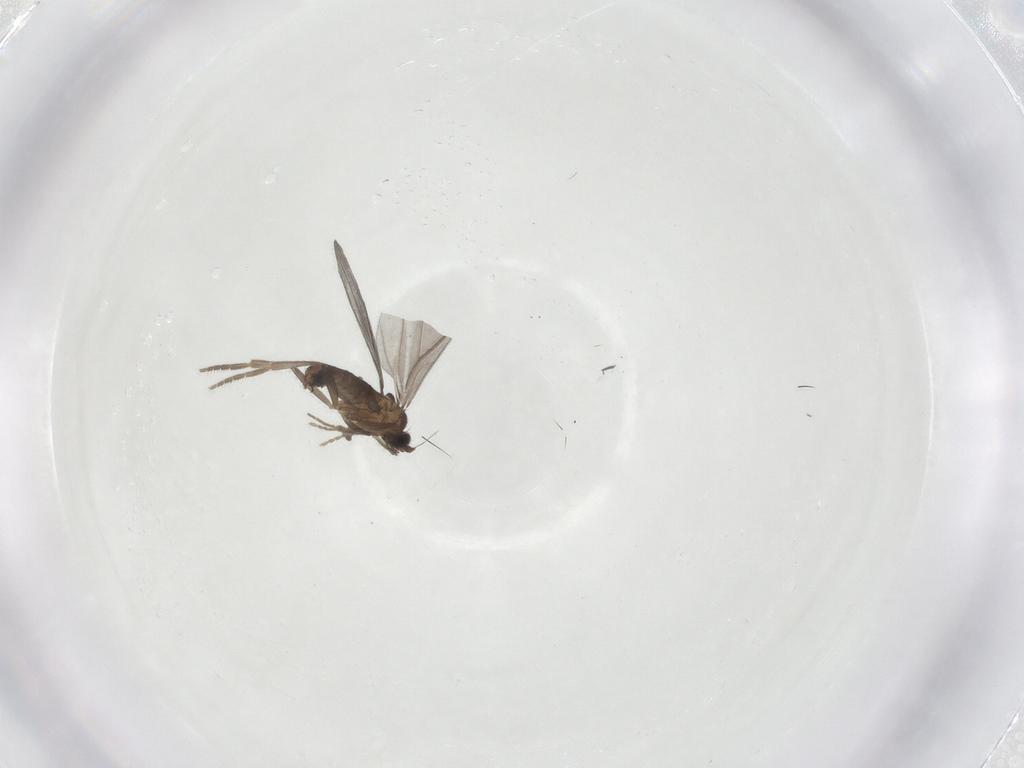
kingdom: Animalia
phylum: Arthropoda
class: Insecta
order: Diptera
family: Phoridae
